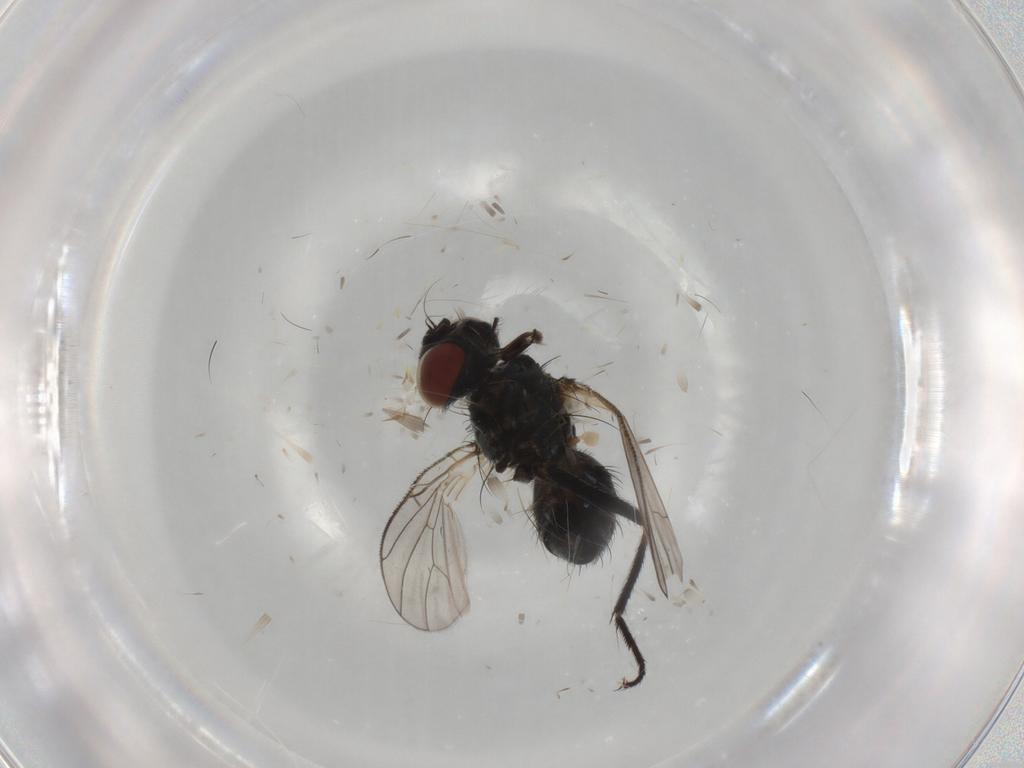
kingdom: Animalia
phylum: Arthropoda
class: Insecta
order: Diptera
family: Muscidae
